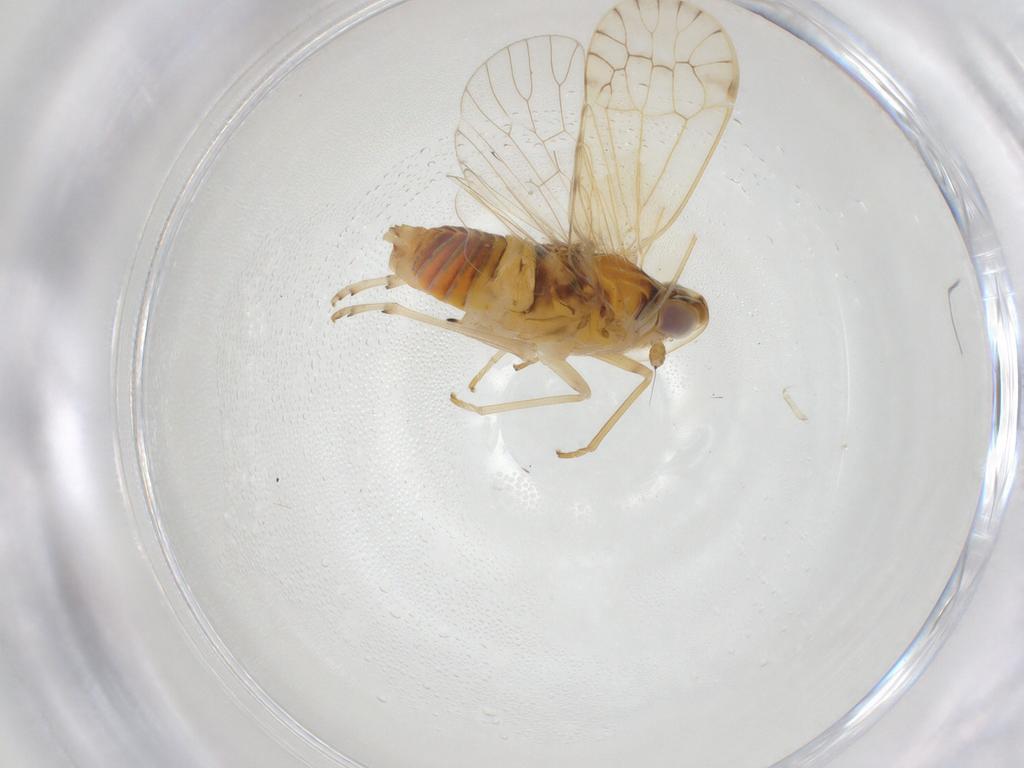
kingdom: Animalia
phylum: Arthropoda
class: Insecta
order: Hemiptera
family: Kinnaridae
